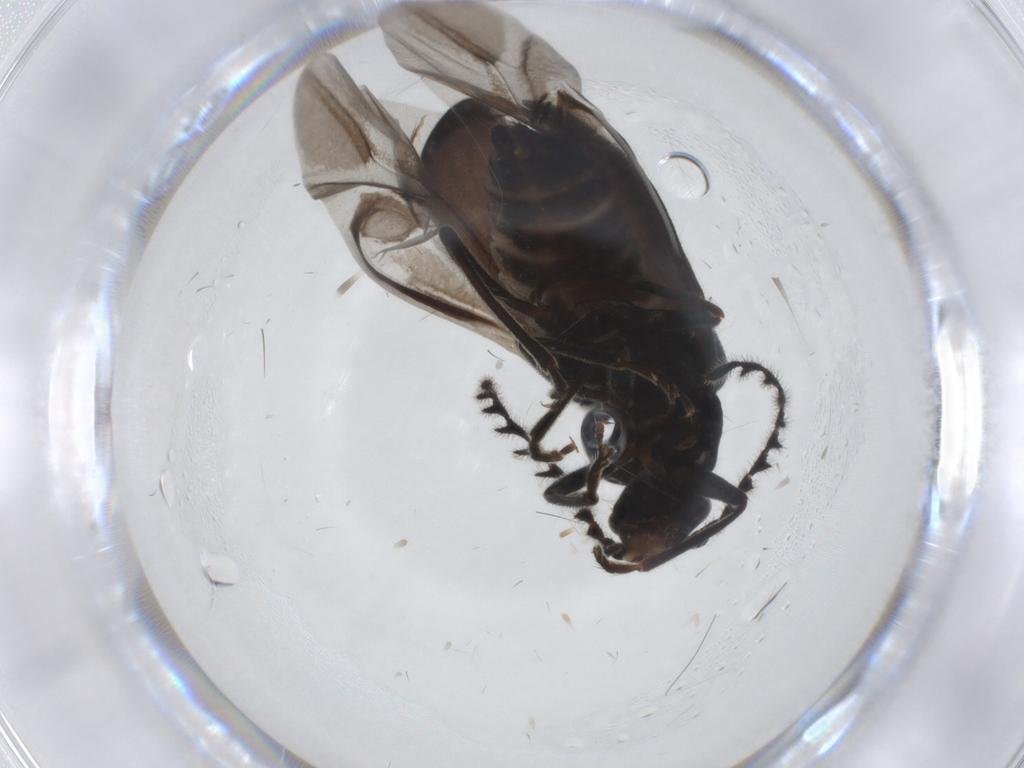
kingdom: Animalia
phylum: Arthropoda
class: Insecta
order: Coleoptera
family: Melyridae
